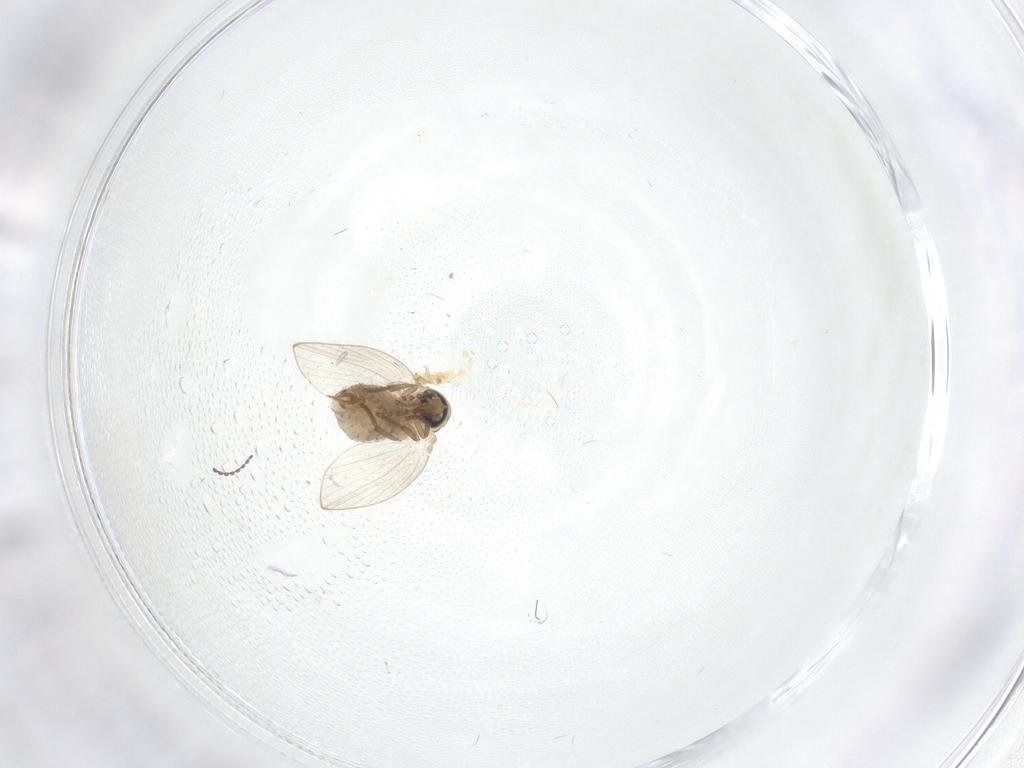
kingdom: Animalia
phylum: Arthropoda
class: Insecta
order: Diptera
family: Psychodidae
